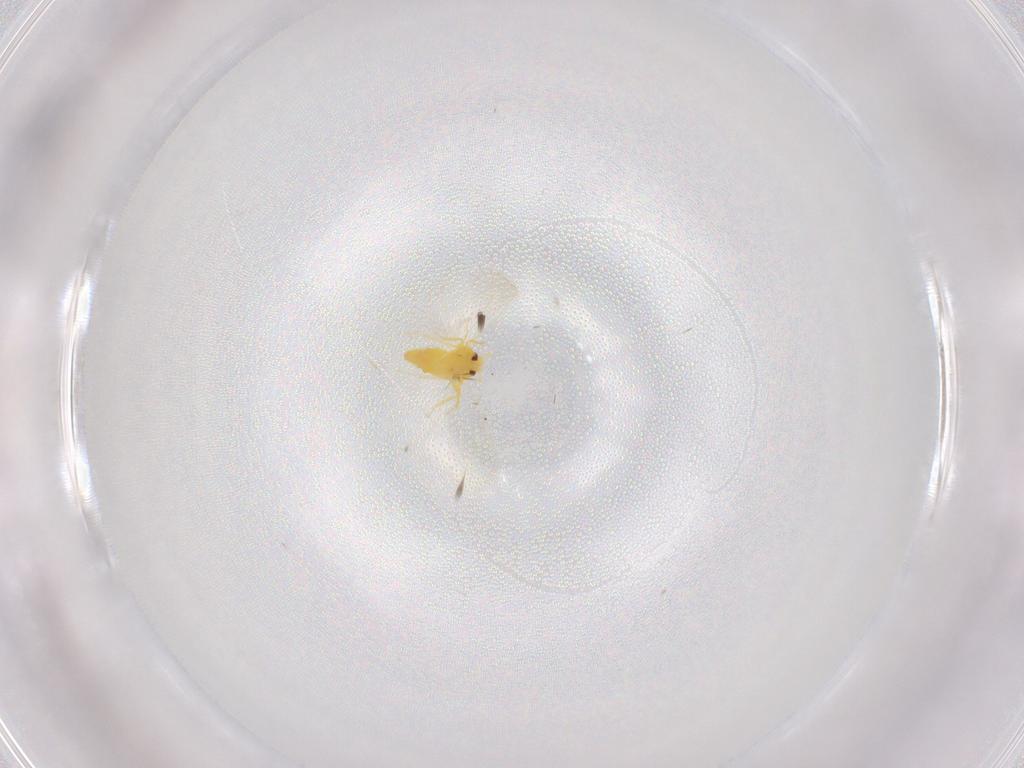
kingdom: Animalia
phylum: Arthropoda
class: Insecta
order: Hemiptera
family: Aleyrodidae
